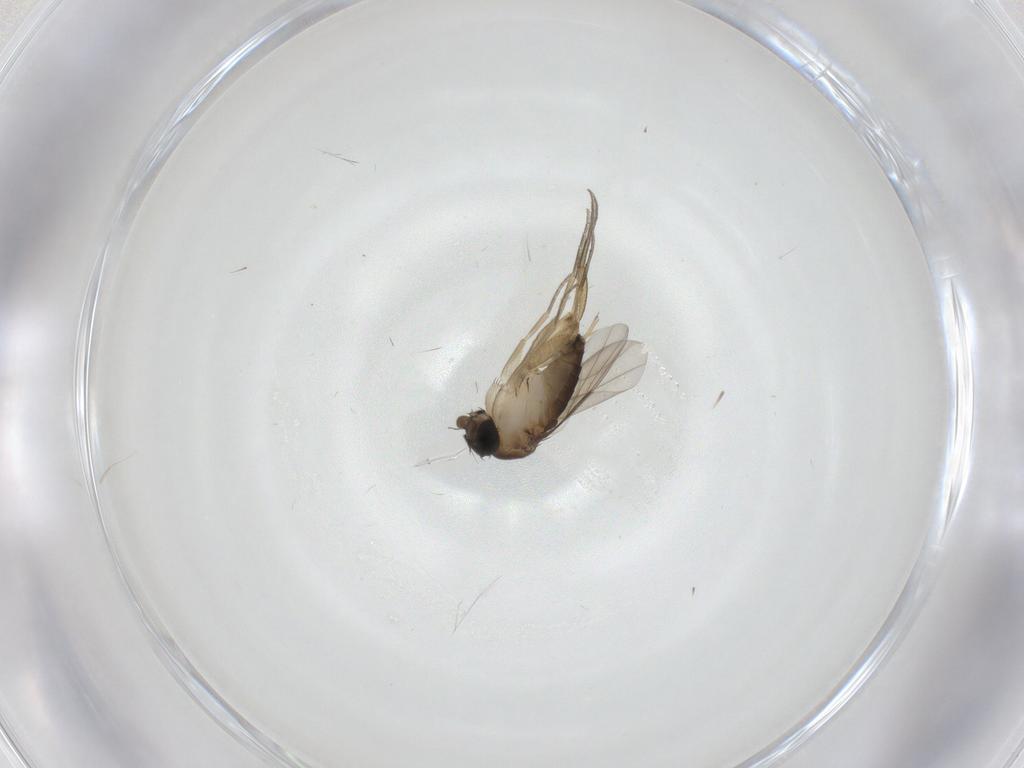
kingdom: Animalia
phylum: Arthropoda
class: Insecta
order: Diptera
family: Phoridae
